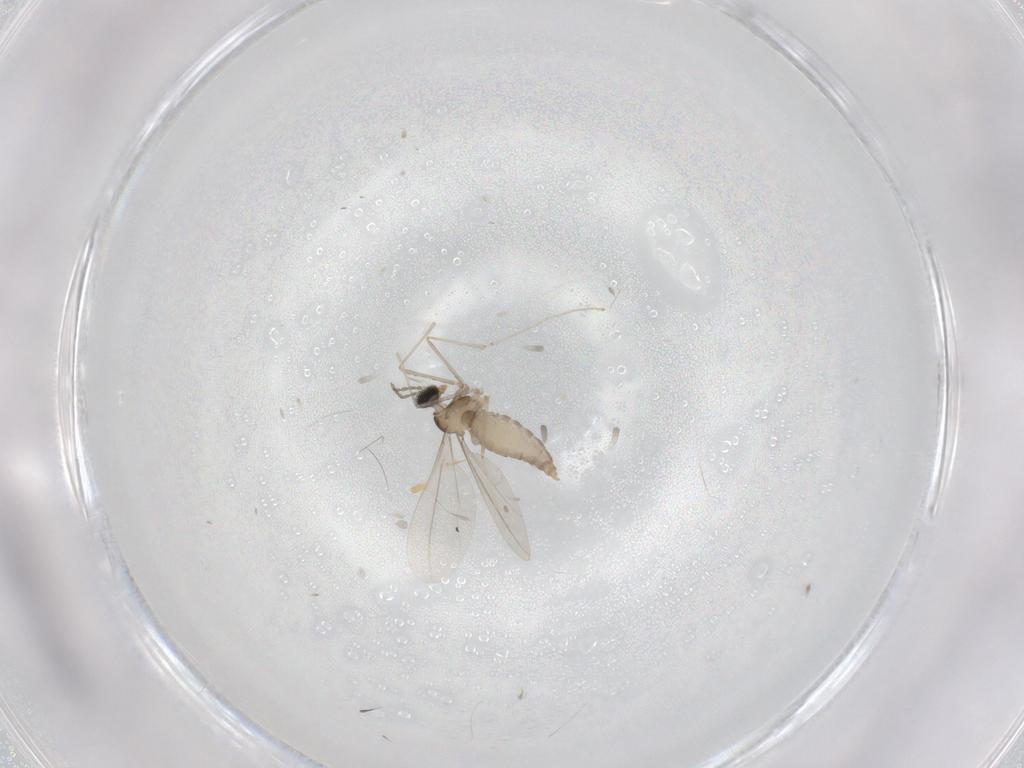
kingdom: Animalia
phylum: Arthropoda
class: Insecta
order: Diptera
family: Cecidomyiidae
